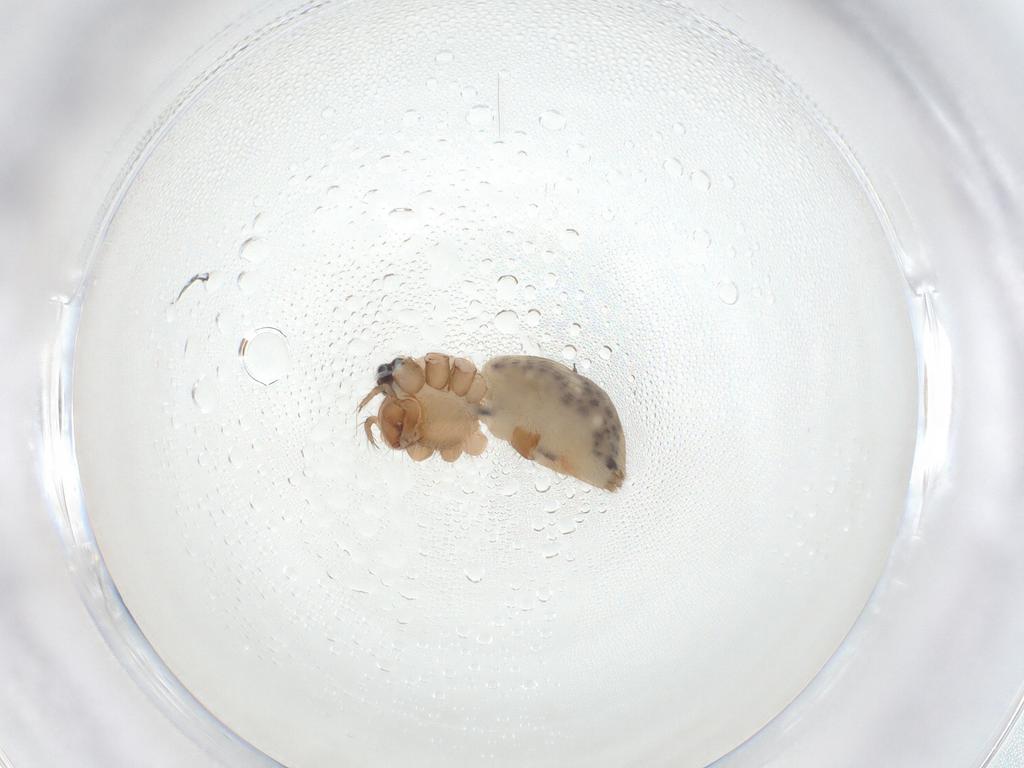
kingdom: Animalia
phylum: Arthropoda
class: Arachnida
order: Araneae
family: Pholcidae
